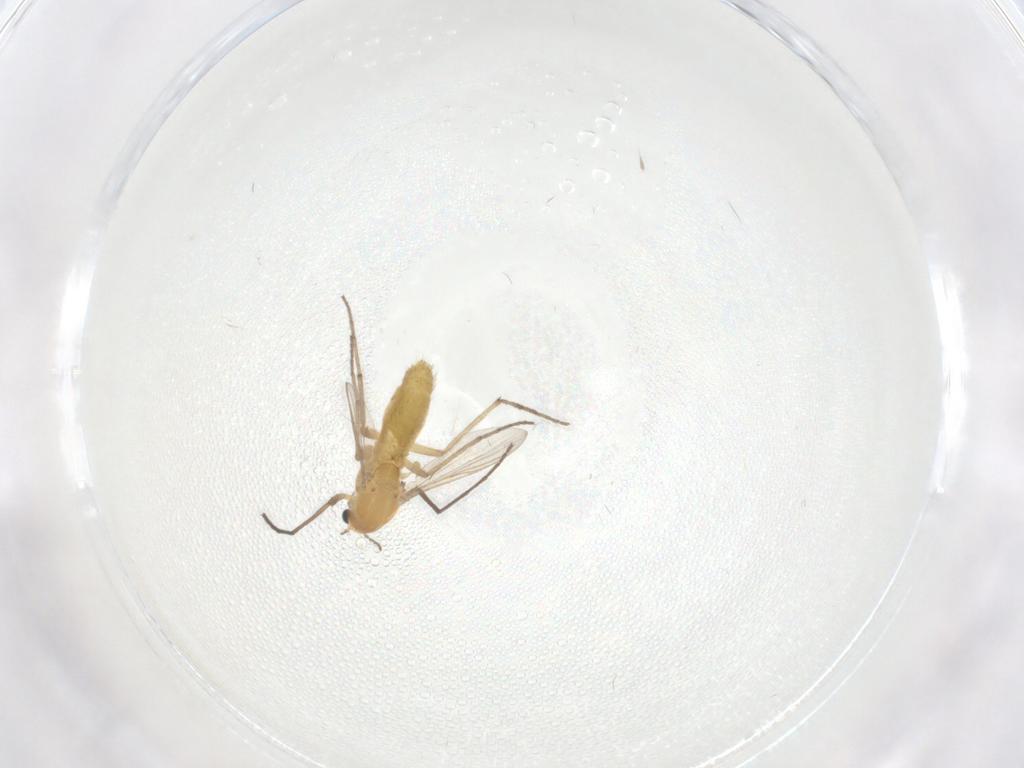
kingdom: Animalia
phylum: Arthropoda
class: Insecta
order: Diptera
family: Chironomidae
